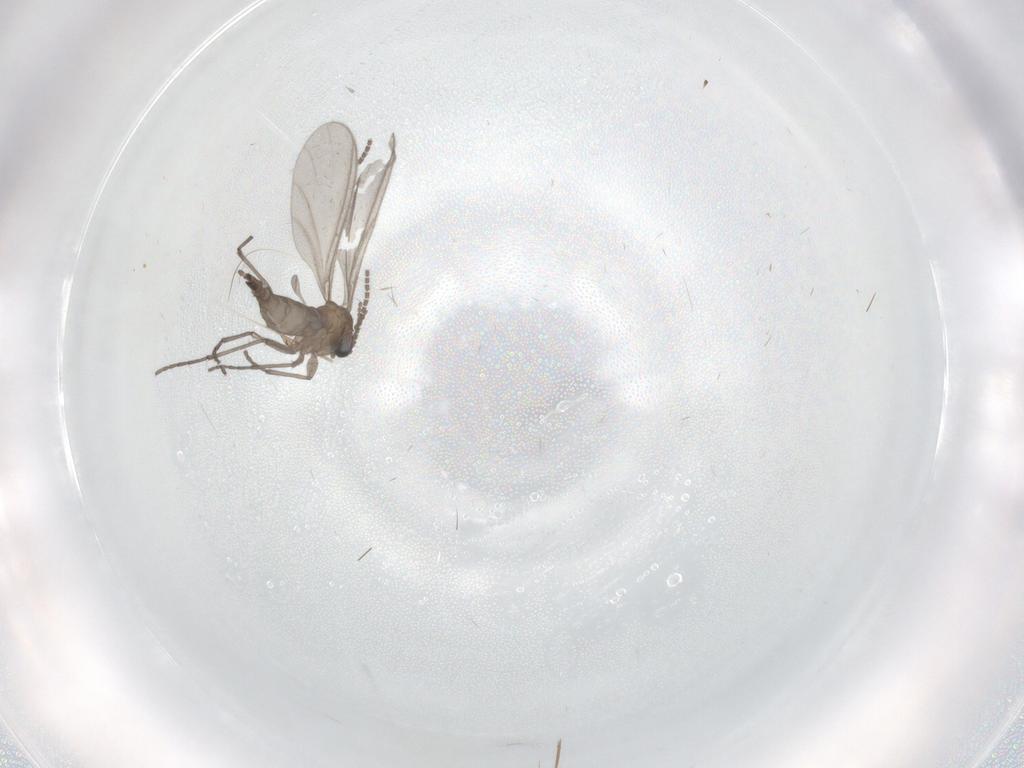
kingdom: Animalia
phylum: Arthropoda
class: Insecta
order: Diptera
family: Sciaridae
